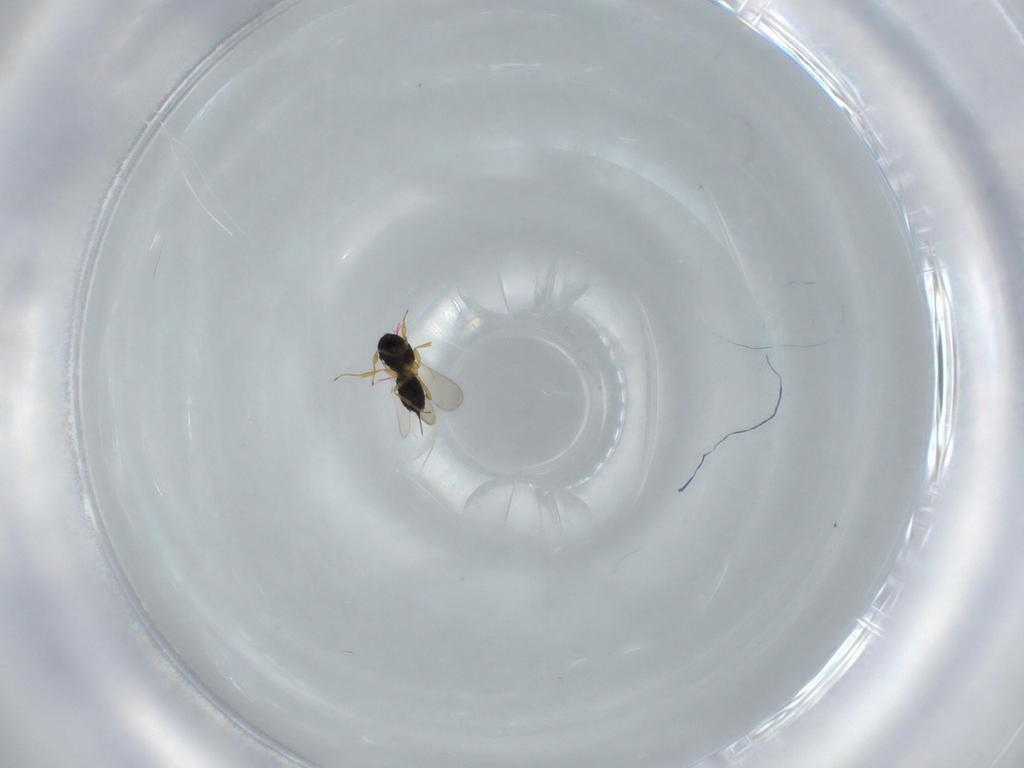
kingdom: Animalia
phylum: Arthropoda
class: Insecta
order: Hymenoptera
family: Scelionidae
